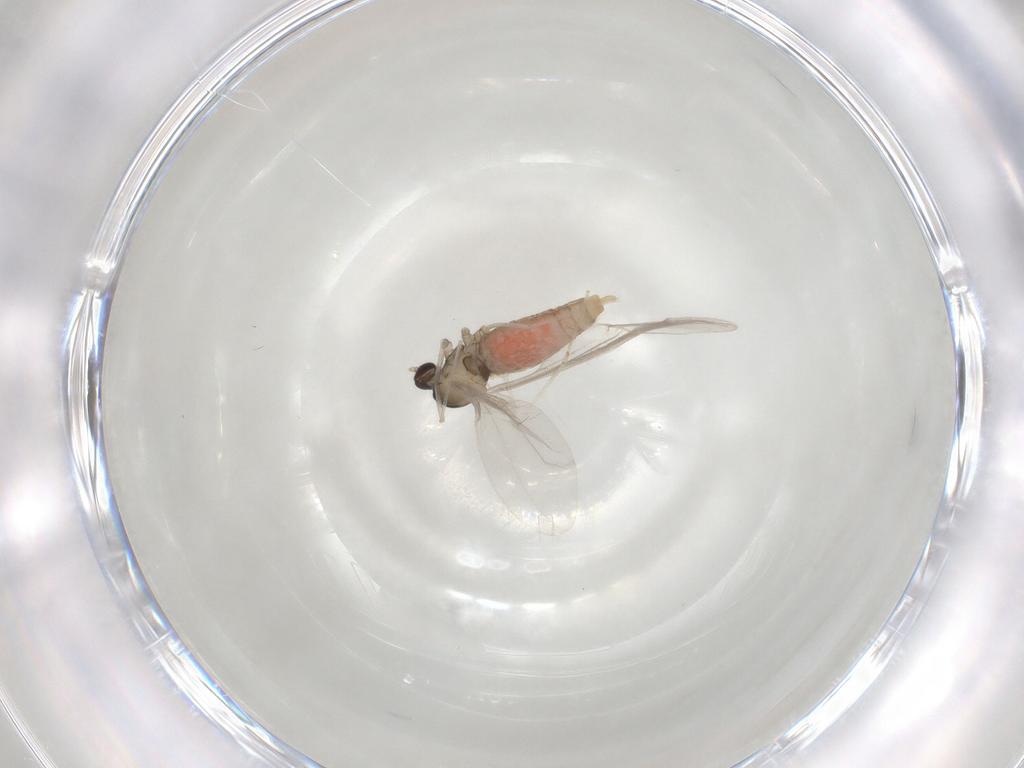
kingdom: Animalia
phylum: Arthropoda
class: Insecta
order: Diptera
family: Cecidomyiidae
